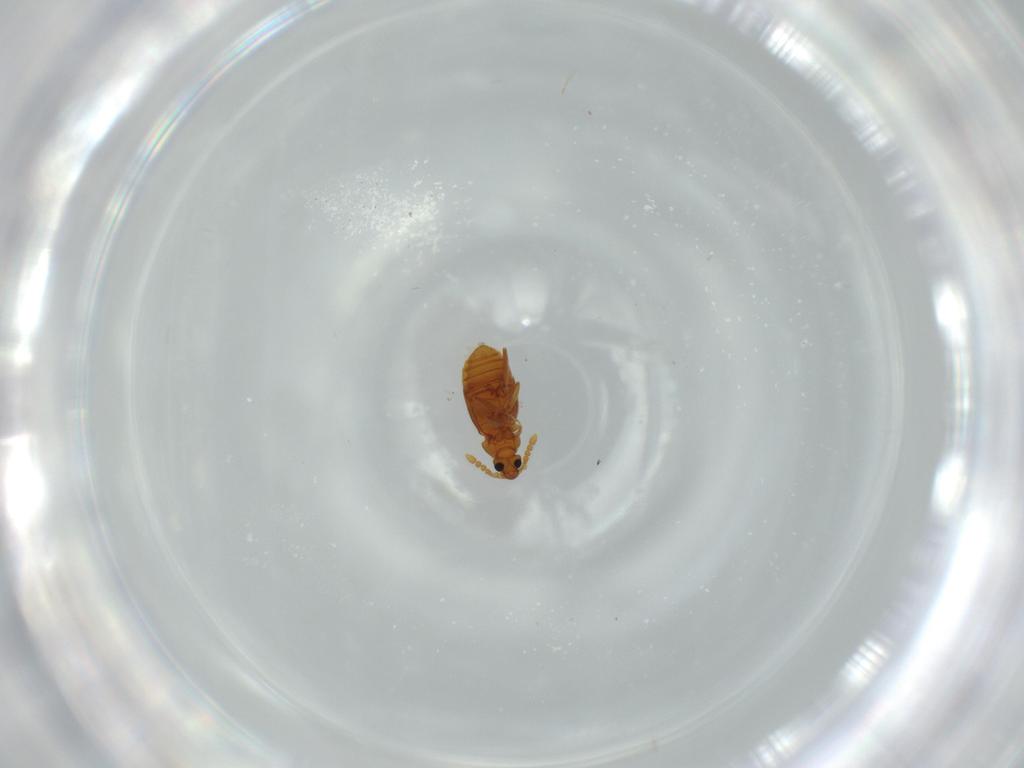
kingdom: Animalia
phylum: Arthropoda
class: Insecta
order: Coleoptera
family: Staphylinidae
